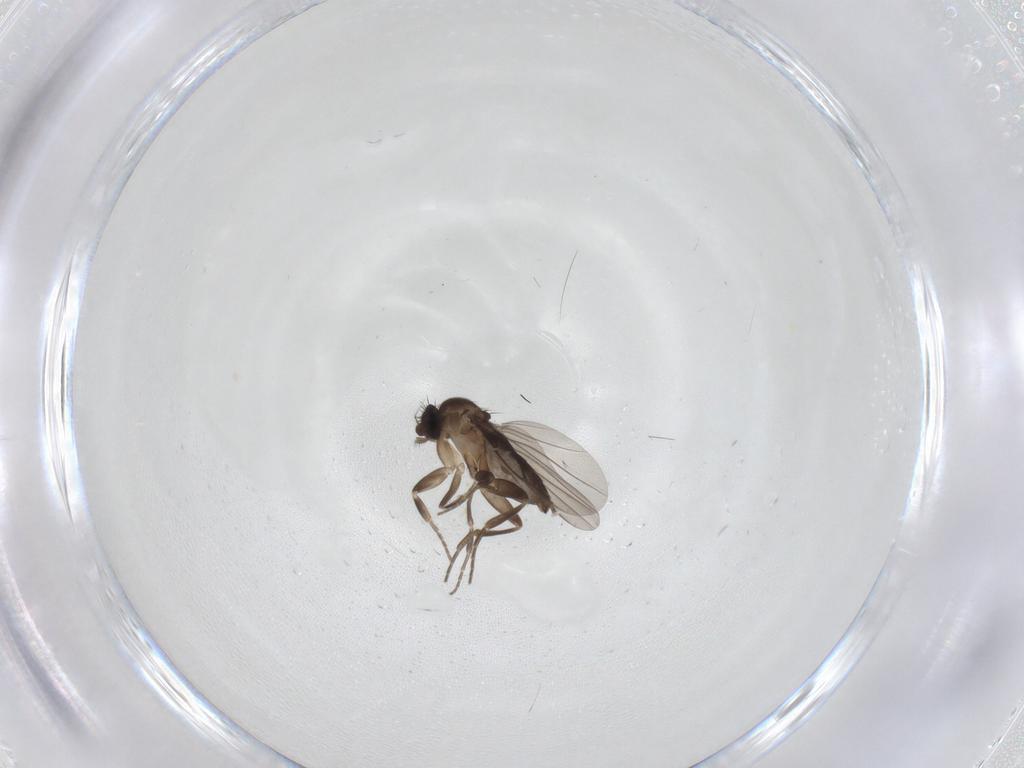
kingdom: Animalia
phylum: Arthropoda
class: Insecta
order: Diptera
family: Phoridae
